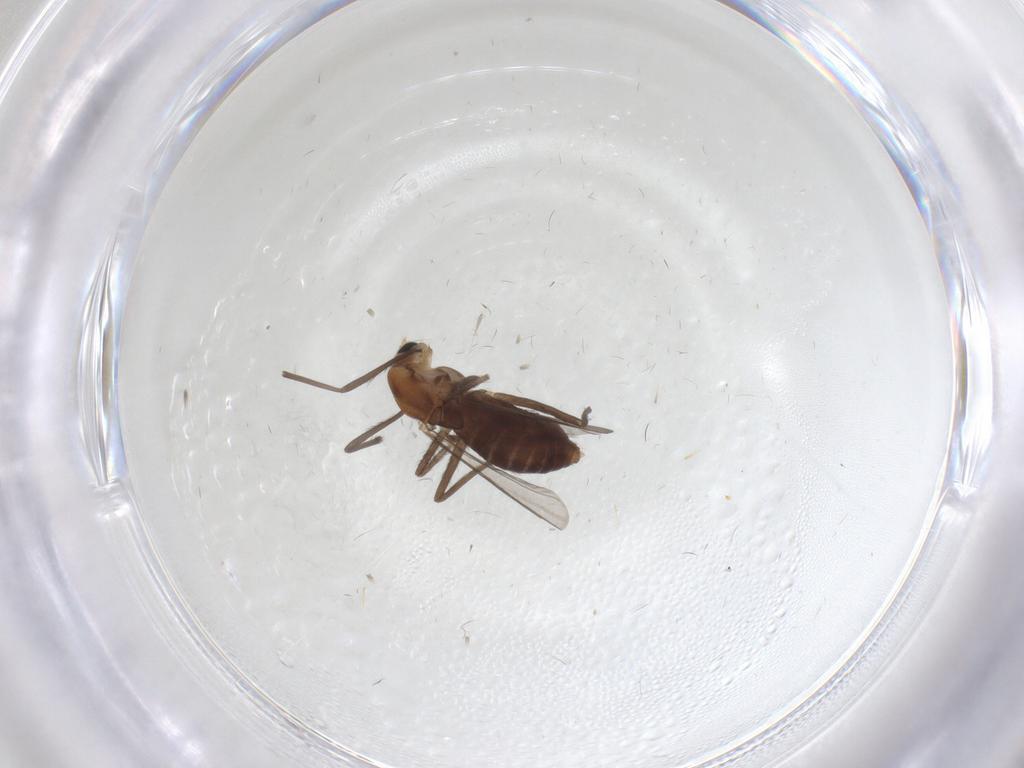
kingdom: Animalia
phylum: Arthropoda
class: Insecta
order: Diptera
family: Chironomidae
